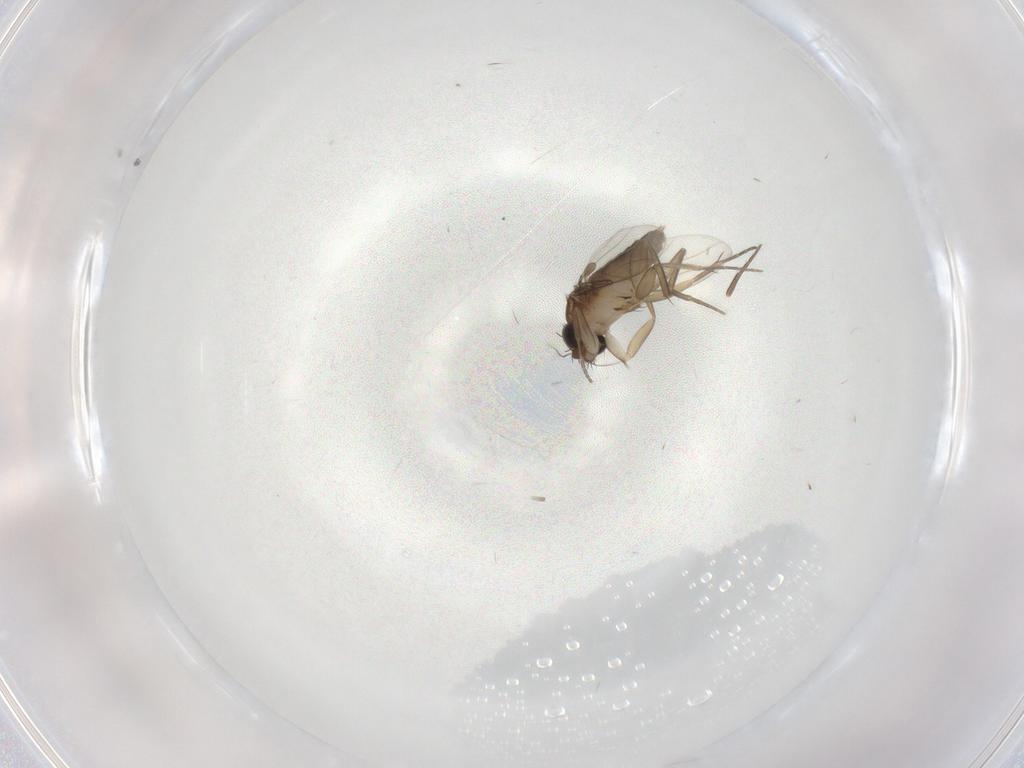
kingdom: Animalia
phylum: Arthropoda
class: Insecta
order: Diptera
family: Phoridae
